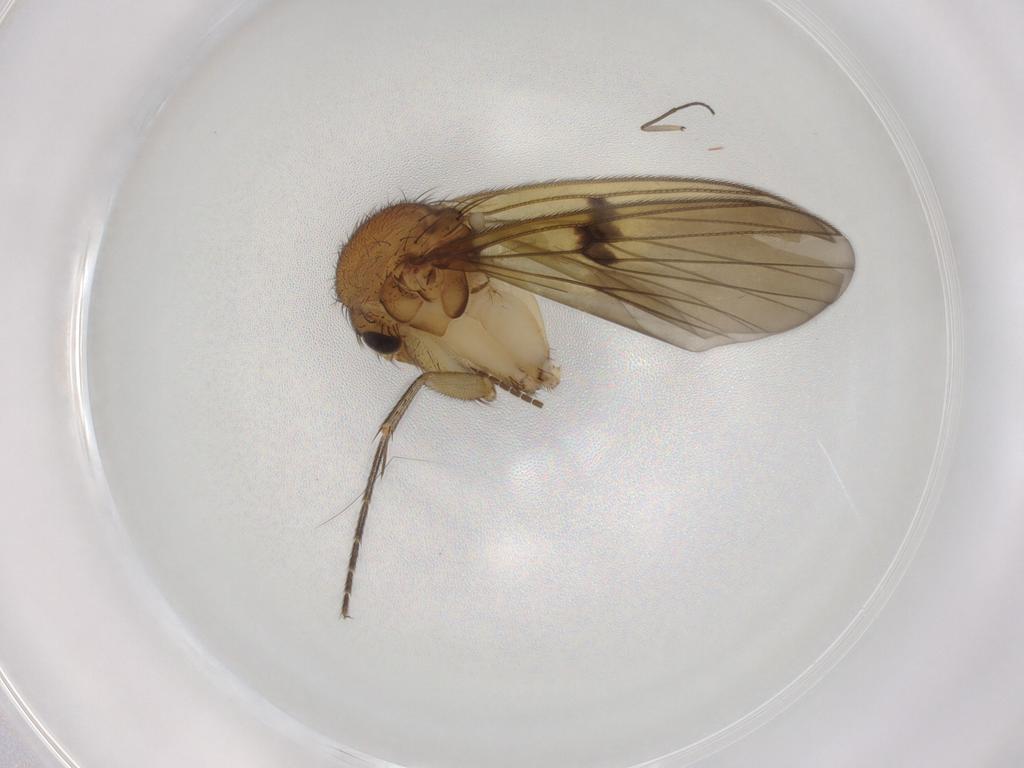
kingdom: Animalia
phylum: Arthropoda
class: Insecta
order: Diptera
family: Mycetophilidae
